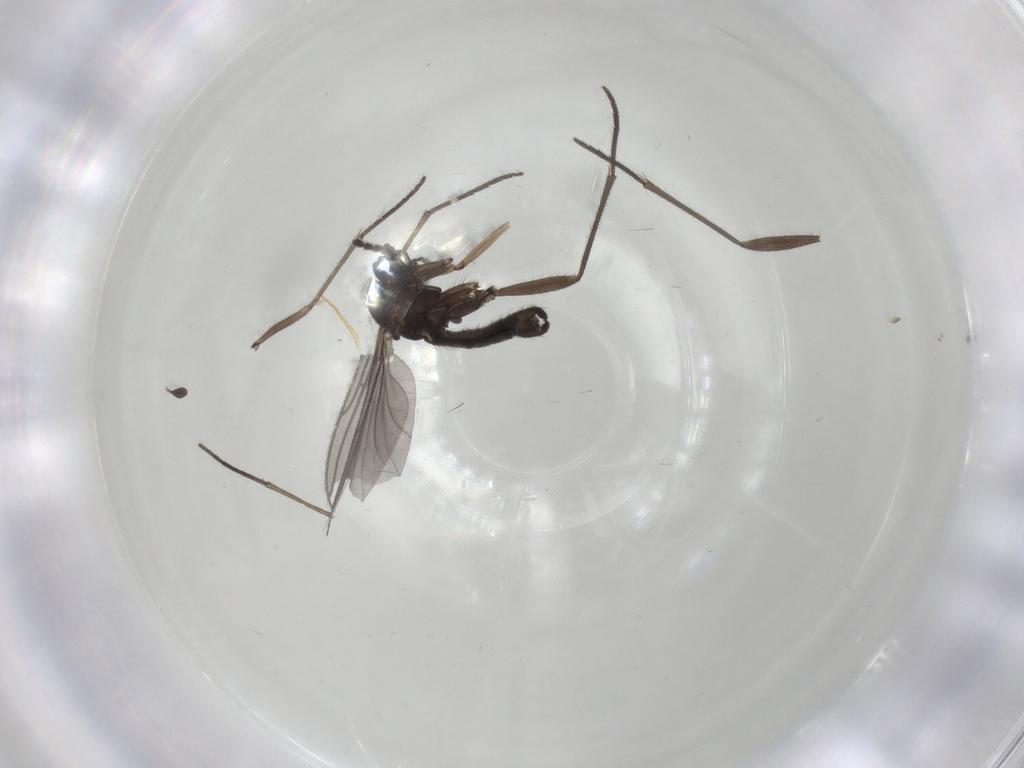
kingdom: Animalia
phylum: Arthropoda
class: Insecta
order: Diptera
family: Sciaridae
